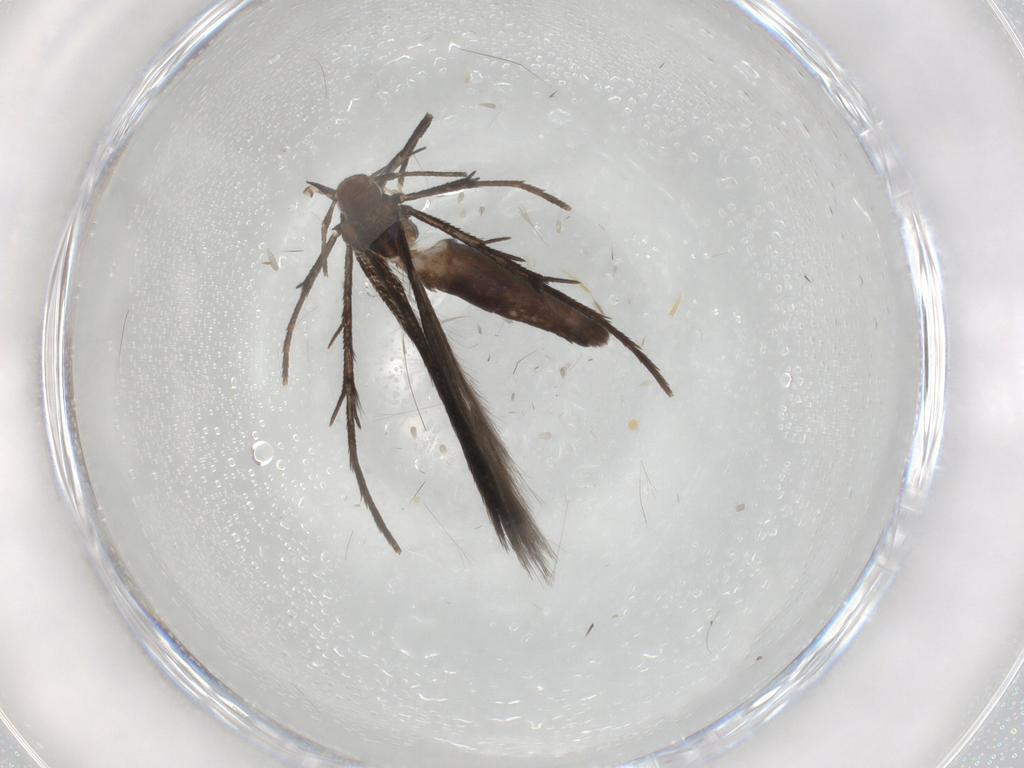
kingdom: Animalia
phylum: Arthropoda
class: Insecta
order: Lepidoptera
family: Cosmopterigidae
